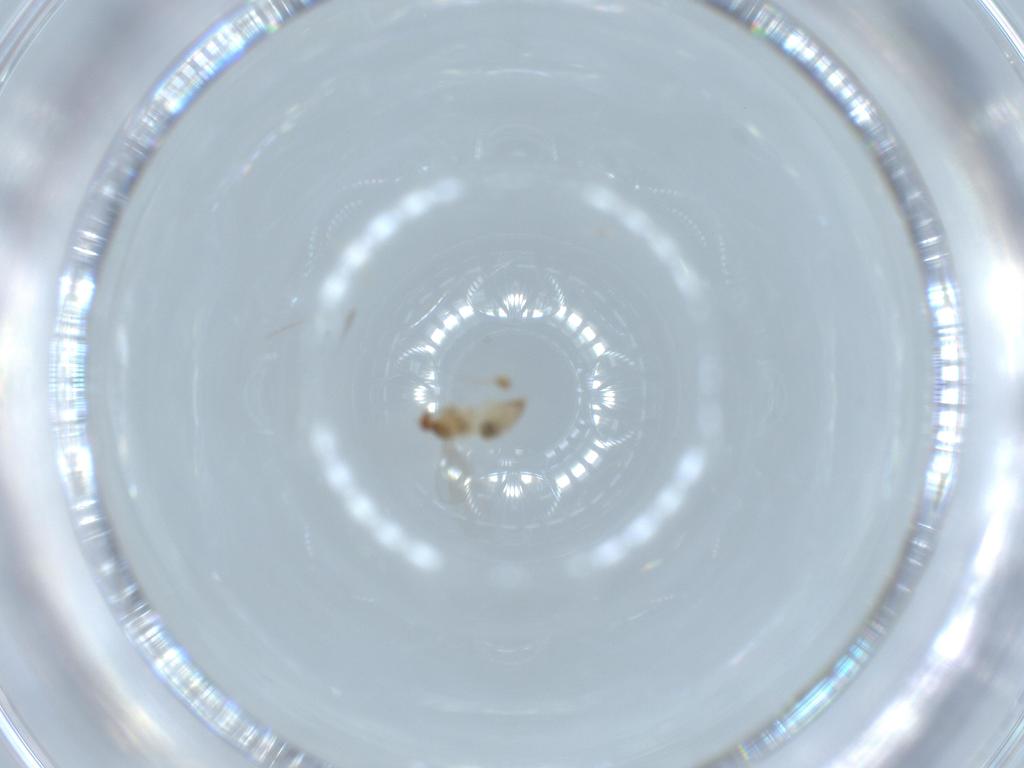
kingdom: Animalia
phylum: Arthropoda
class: Insecta
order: Diptera
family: Cecidomyiidae
